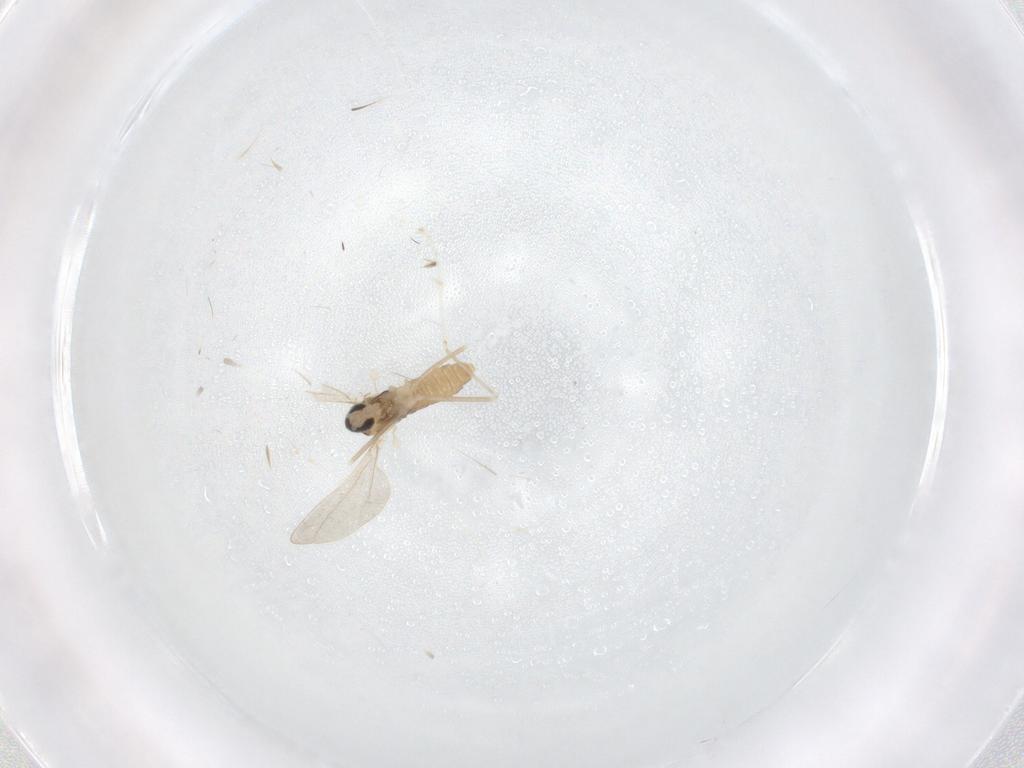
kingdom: Animalia
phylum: Arthropoda
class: Insecta
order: Diptera
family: Cecidomyiidae
